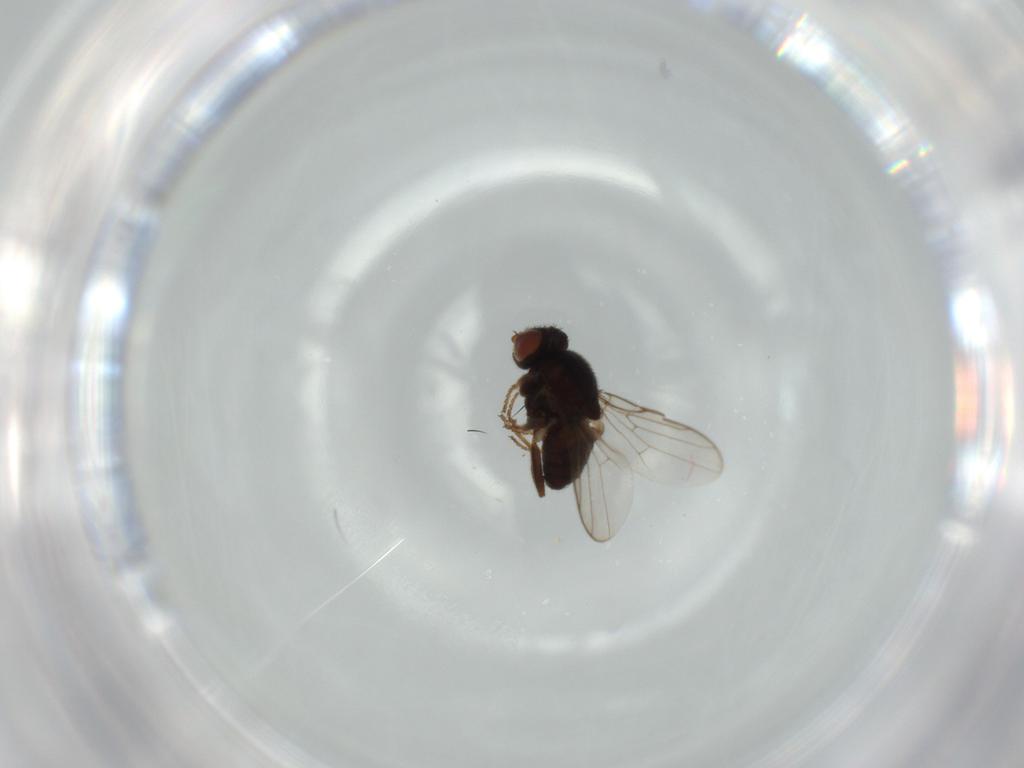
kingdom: Animalia
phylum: Arthropoda
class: Insecta
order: Diptera
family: Chloropidae
